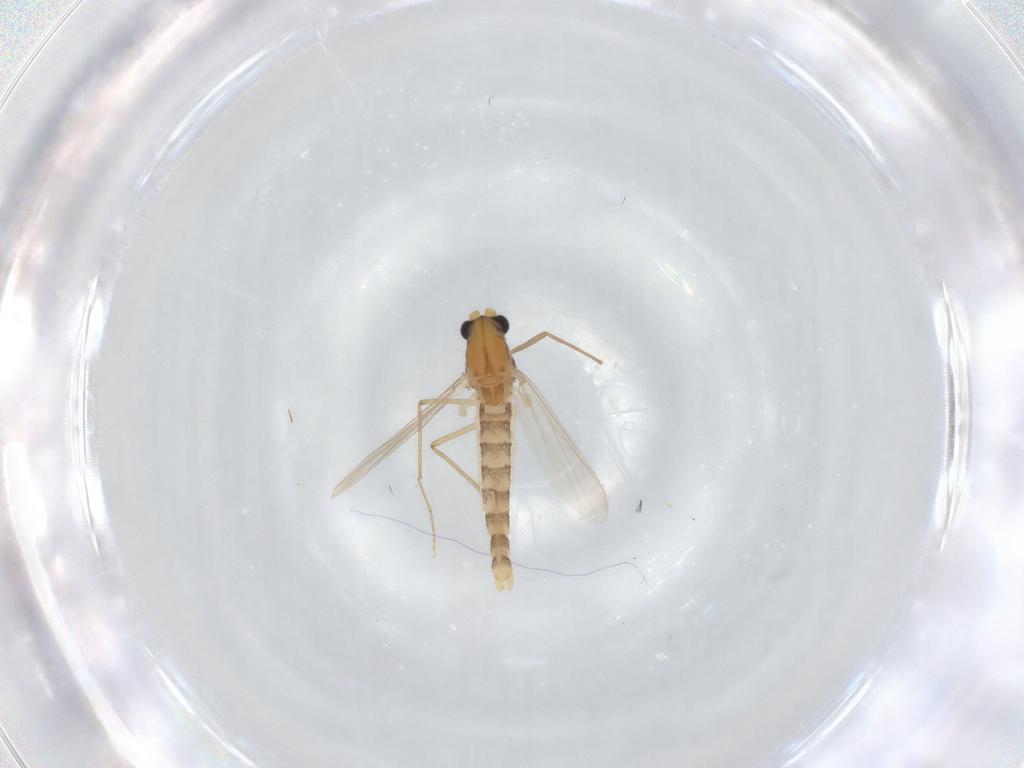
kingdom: Animalia
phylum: Arthropoda
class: Insecta
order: Diptera
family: Chironomidae
